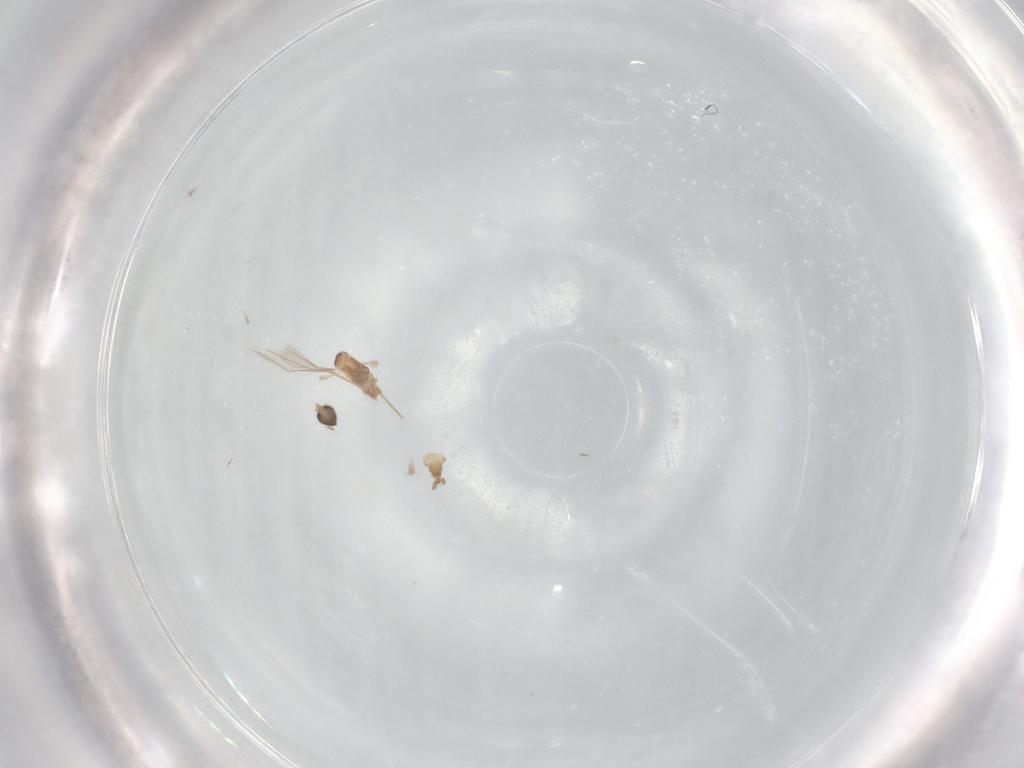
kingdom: Animalia
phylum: Arthropoda
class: Insecta
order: Diptera
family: Cecidomyiidae
